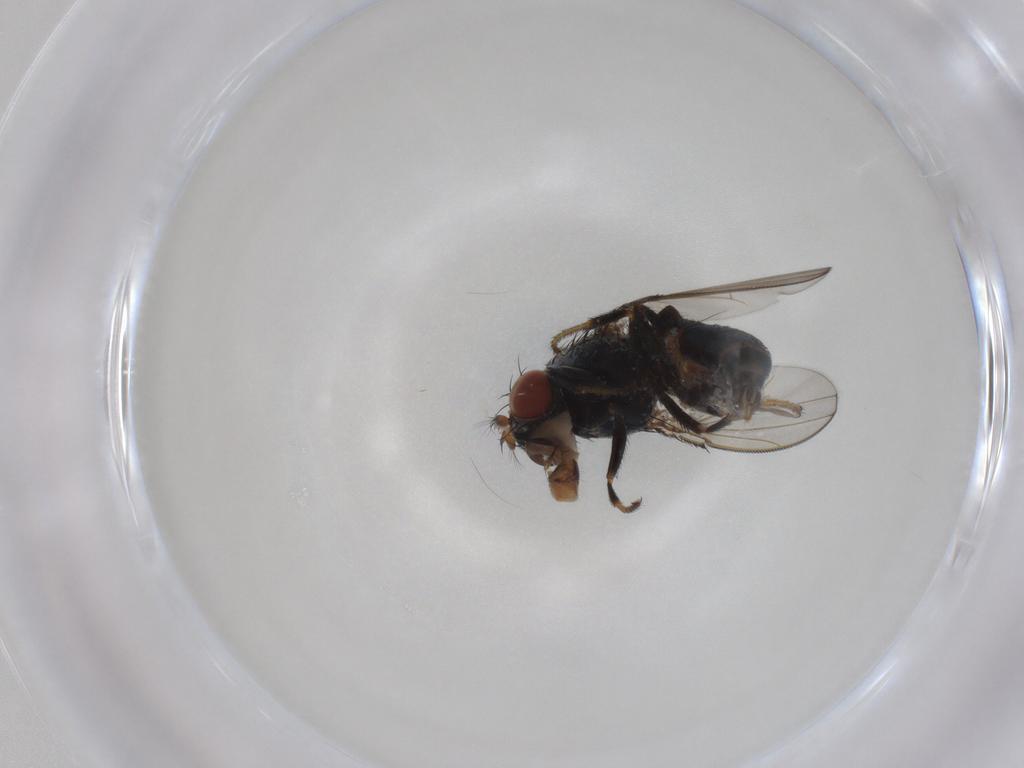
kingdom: Animalia
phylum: Arthropoda
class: Insecta
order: Diptera
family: Ephydridae
